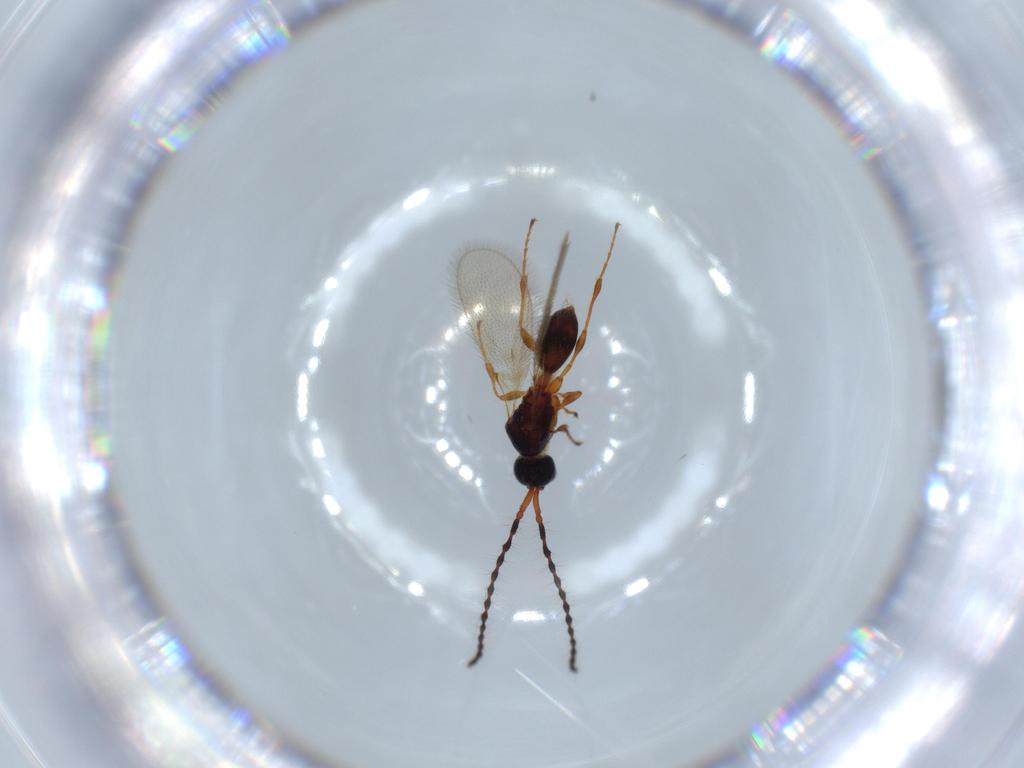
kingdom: Animalia
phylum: Arthropoda
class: Insecta
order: Hymenoptera
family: Diapriidae
